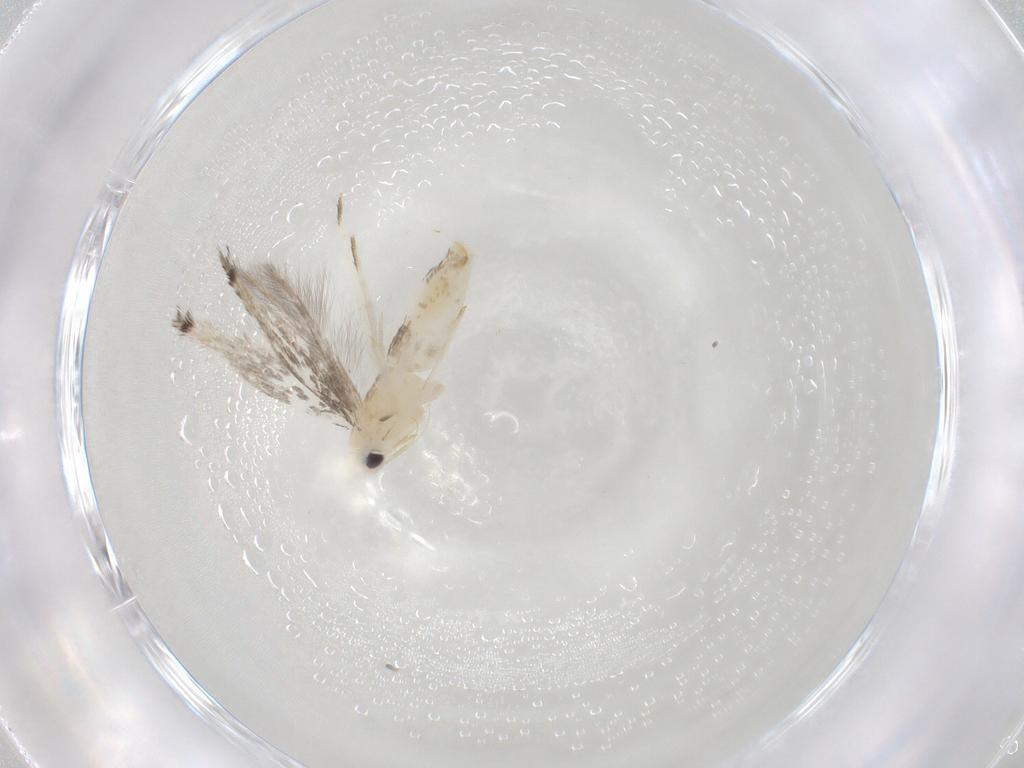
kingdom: Animalia
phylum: Arthropoda
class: Insecta
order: Lepidoptera
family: Nepticulidae
